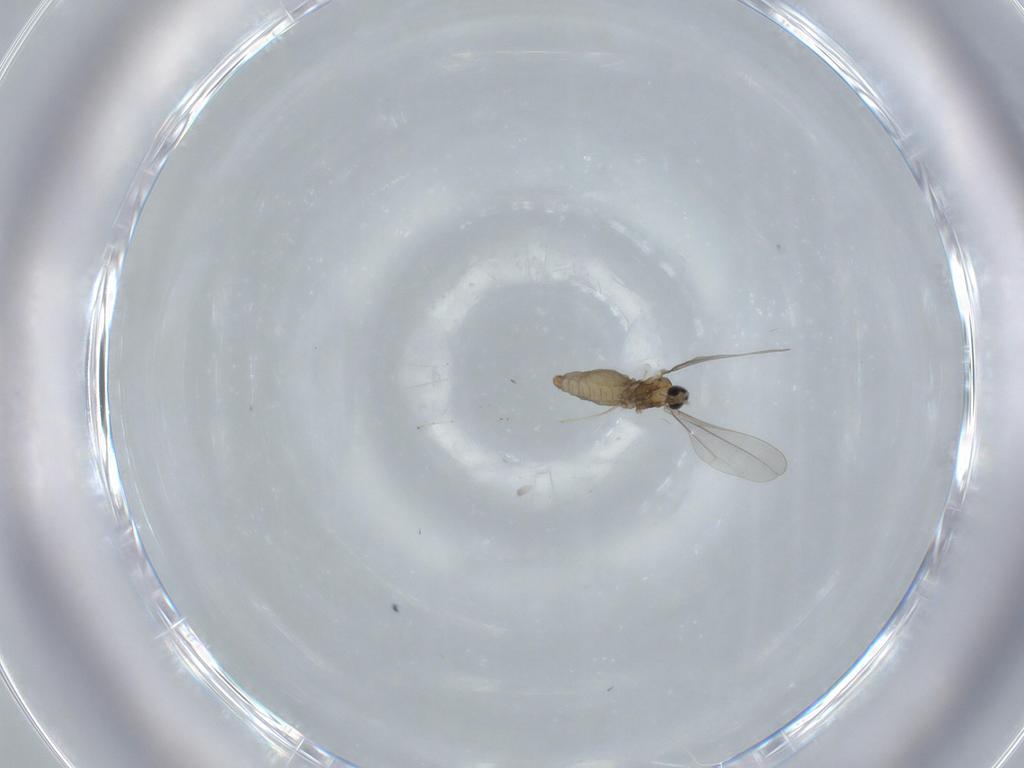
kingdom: Animalia
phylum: Arthropoda
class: Insecta
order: Diptera
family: Cecidomyiidae
